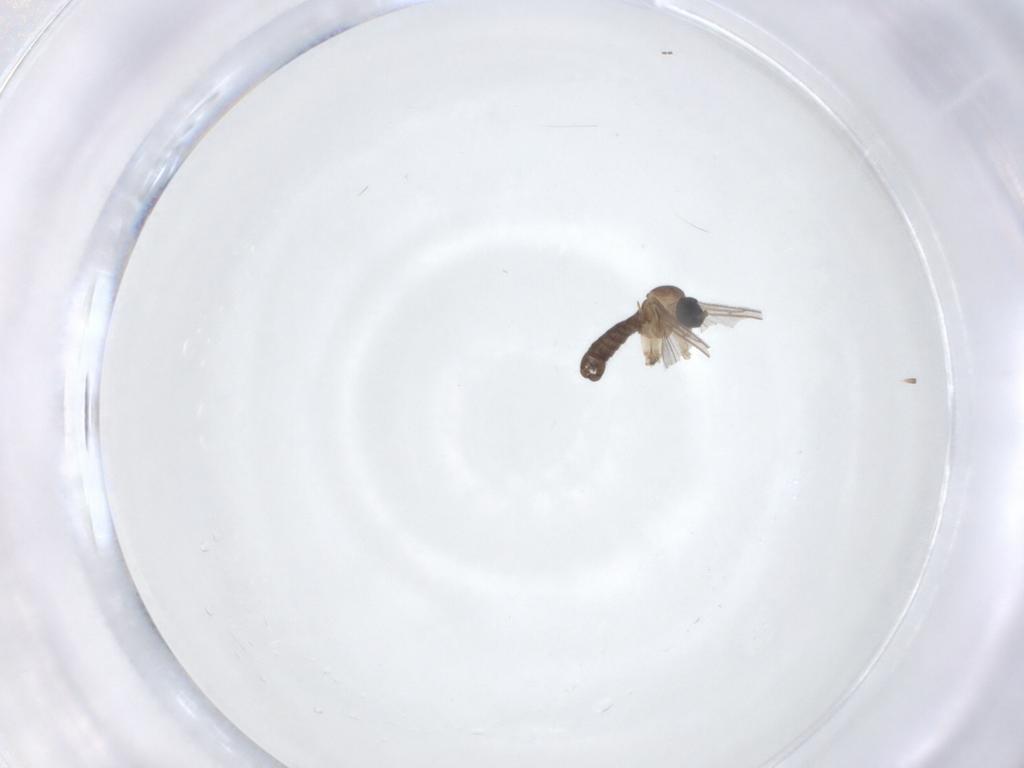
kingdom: Animalia
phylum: Arthropoda
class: Insecta
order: Diptera
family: Sciaridae
